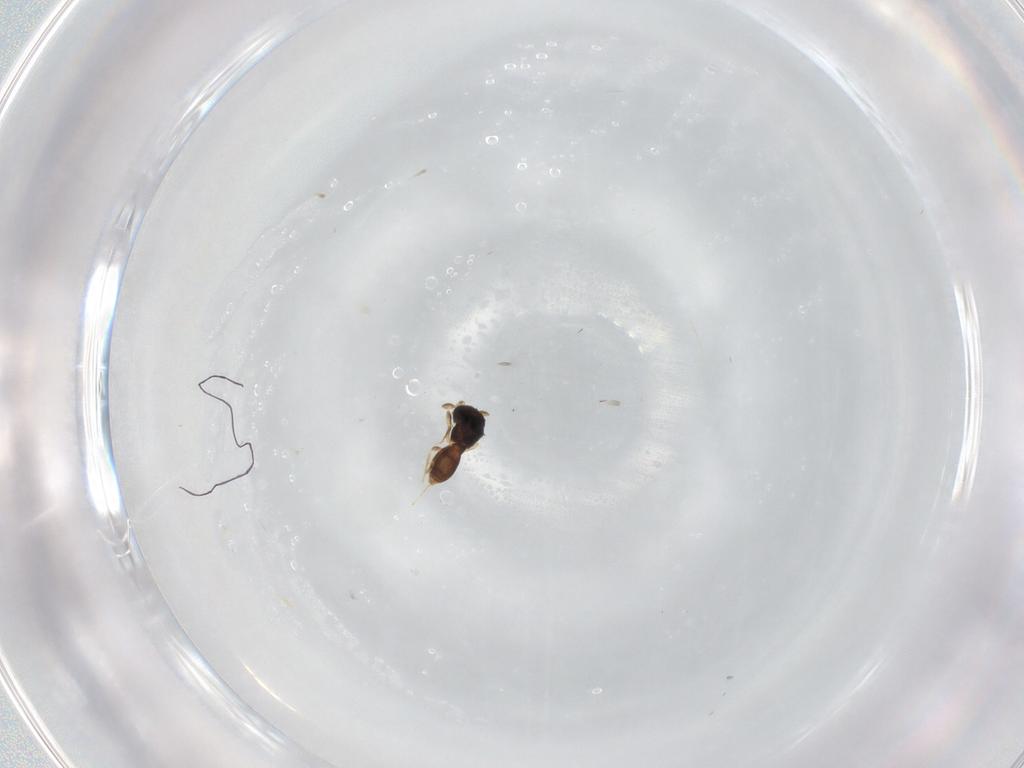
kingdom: Animalia
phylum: Arthropoda
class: Insecta
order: Hymenoptera
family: Scelionidae
